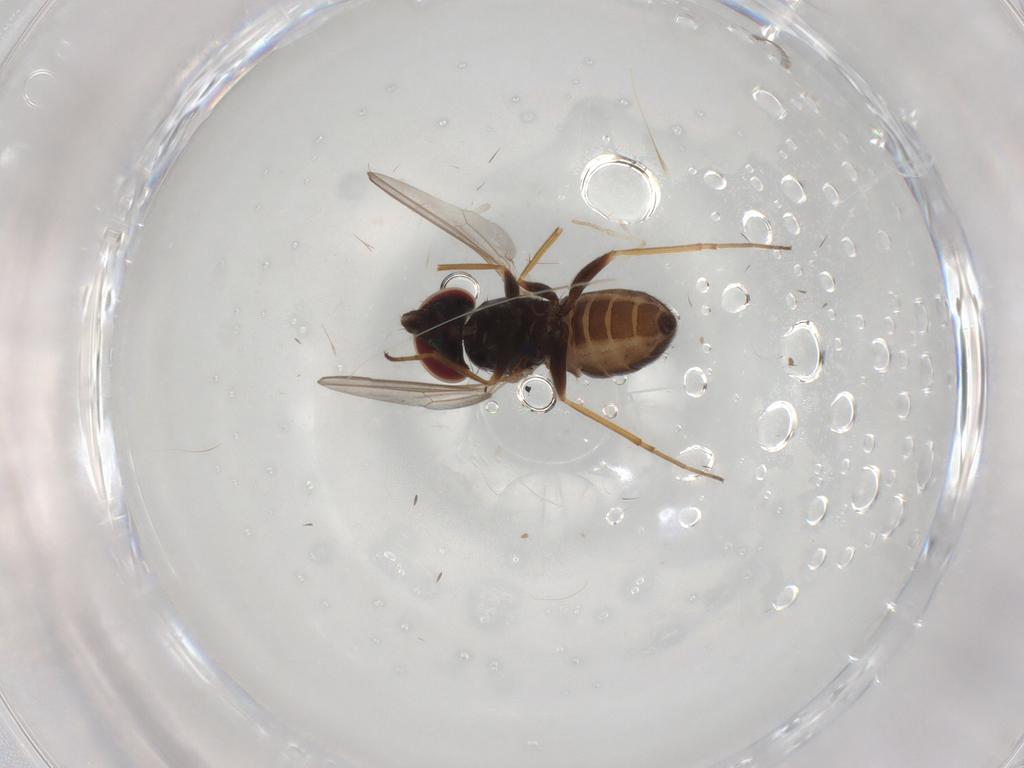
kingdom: Animalia
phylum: Arthropoda
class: Insecta
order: Diptera
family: Dolichopodidae
